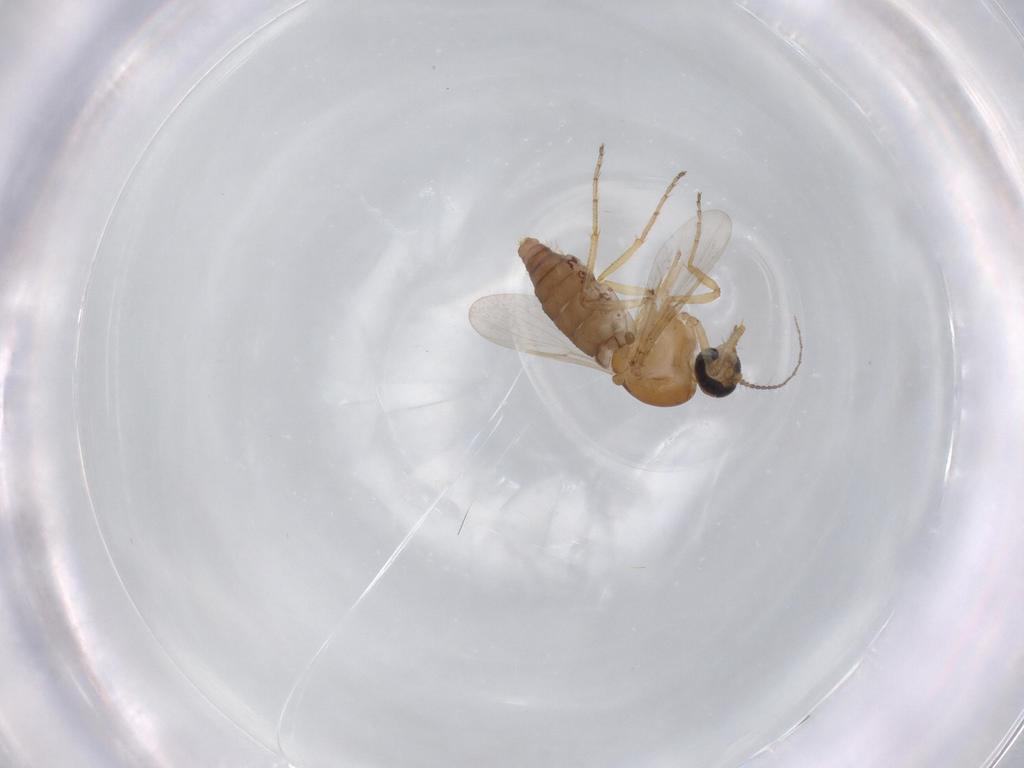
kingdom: Animalia
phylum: Arthropoda
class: Insecta
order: Diptera
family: Ceratopogonidae
